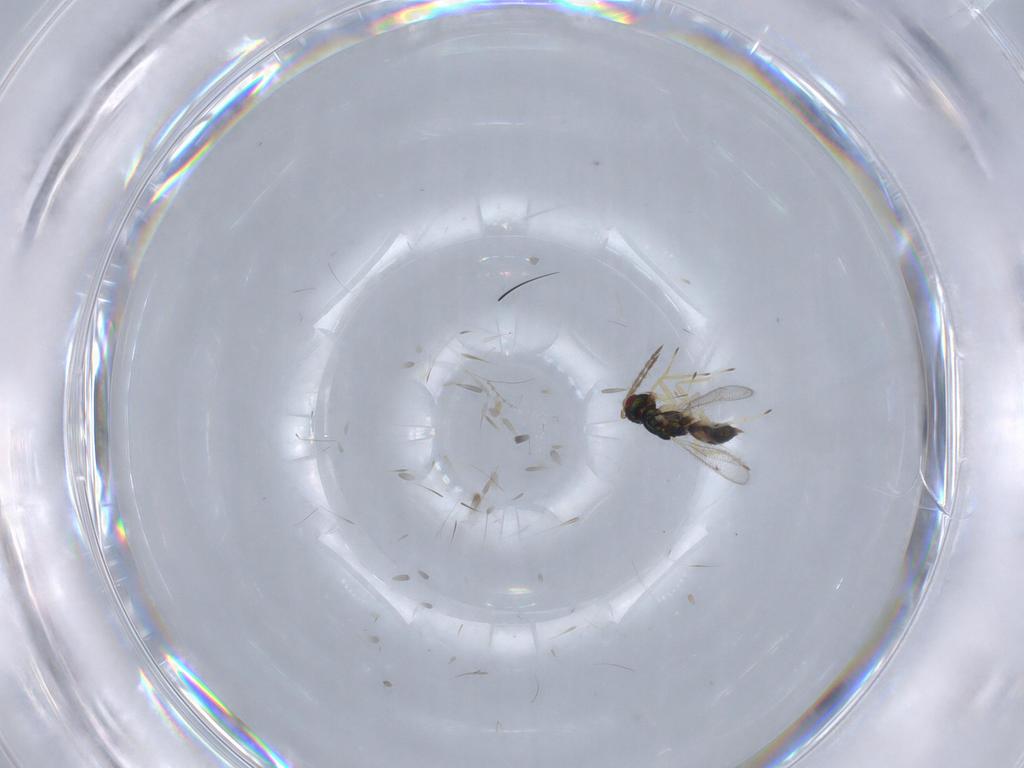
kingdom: Animalia
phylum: Arthropoda
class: Insecta
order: Hymenoptera
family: Eulophidae
